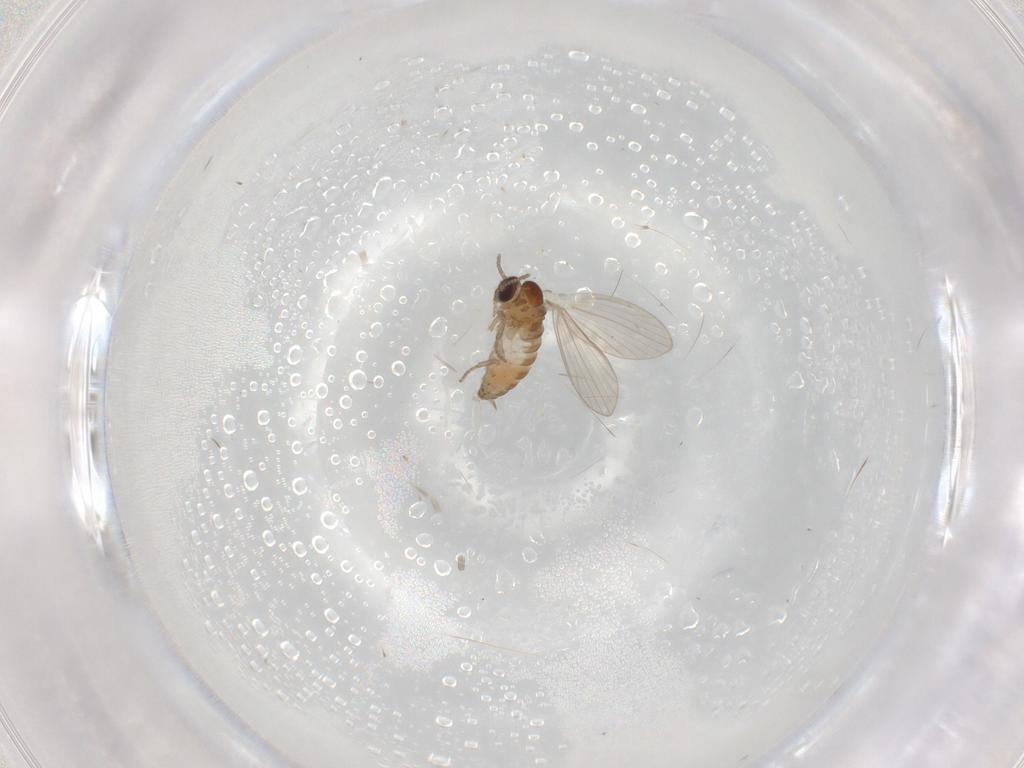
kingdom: Animalia
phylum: Arthropoda
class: Insecta
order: Diptera
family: Psychodidae
